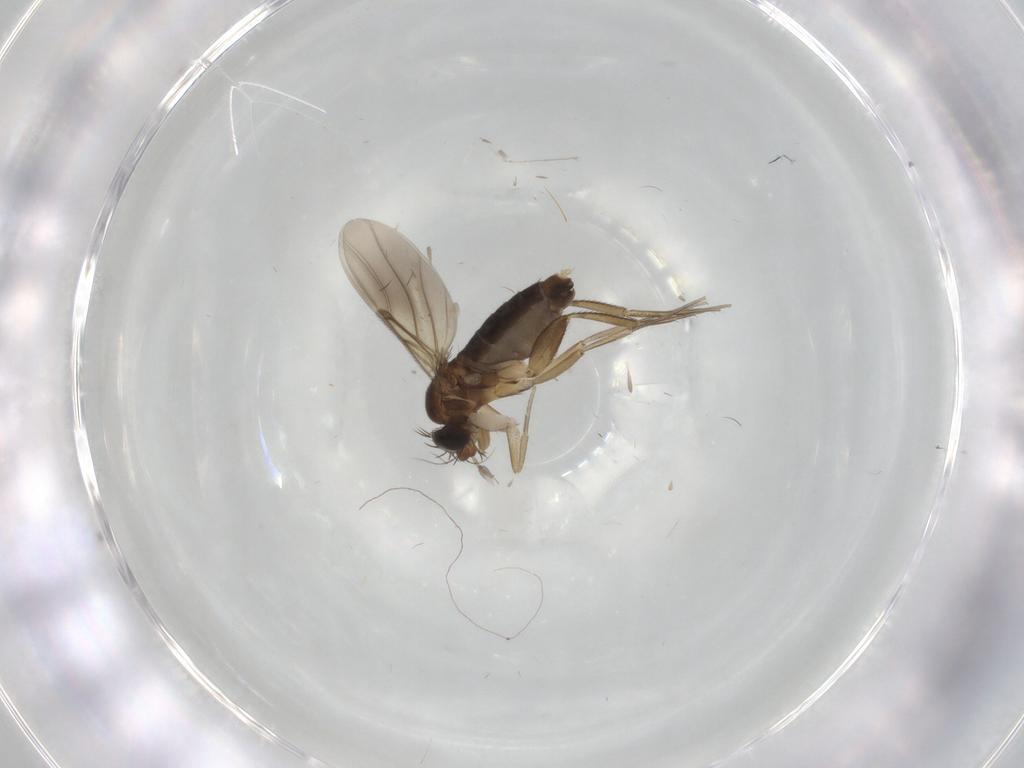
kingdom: Animalia
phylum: Arthropoda
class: Insecta
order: Diptera
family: Phoridae
